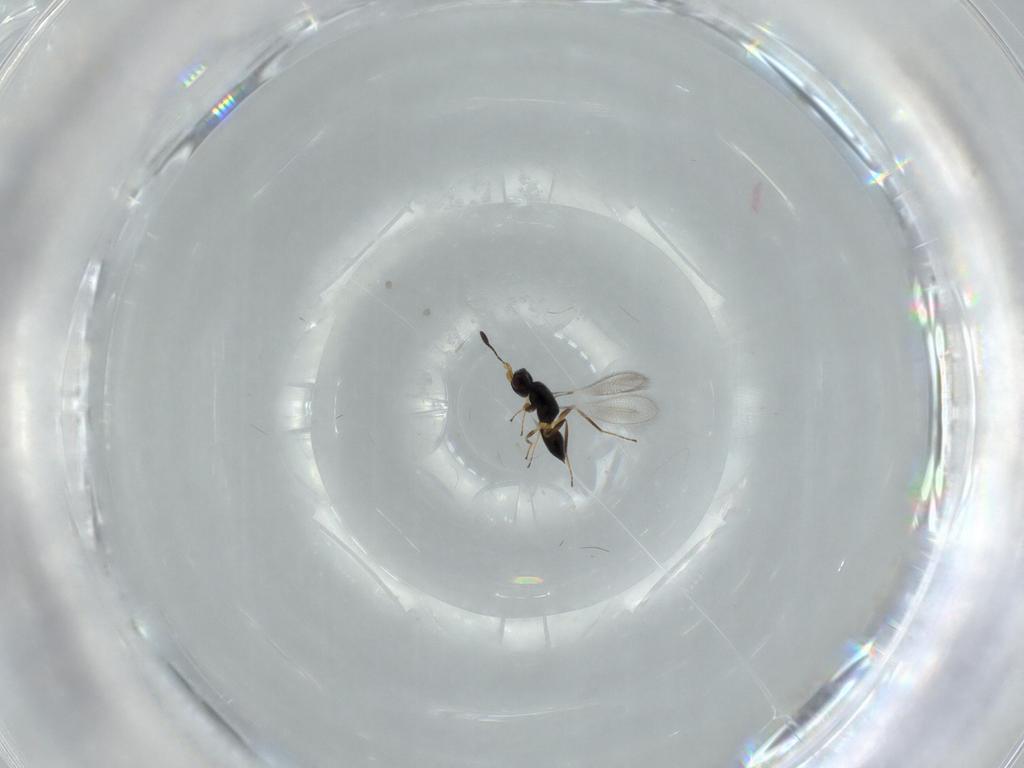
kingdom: Animalia
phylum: Arthropoda
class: Insecta
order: Hymenoptera
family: Mymaridae
